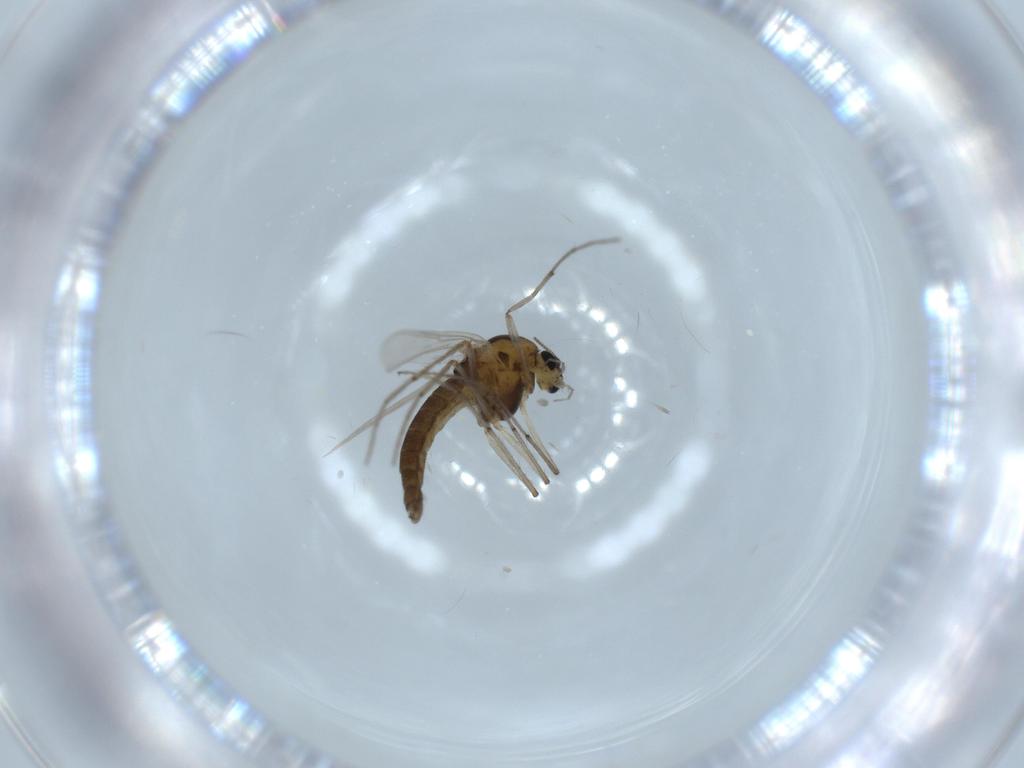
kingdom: Animalia
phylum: Arthropoda
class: Insecta
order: Diptera
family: Chironomidae
